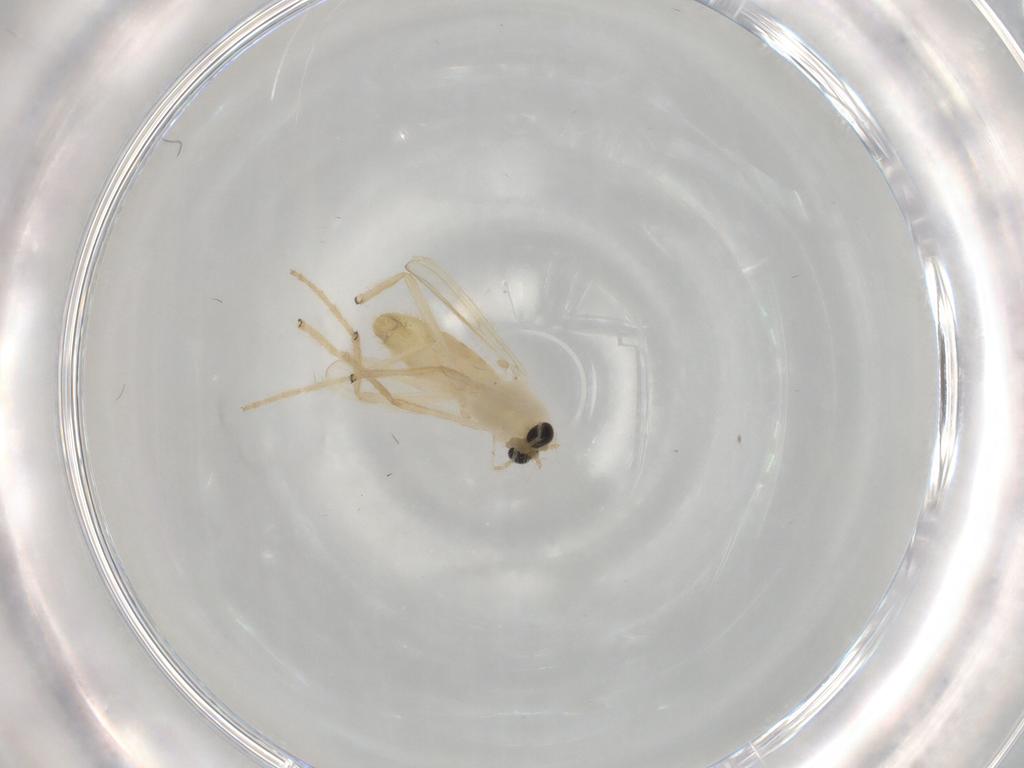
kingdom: Animalia
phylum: Arthropoda
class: Insecta
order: Diptera
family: Chironomidae
